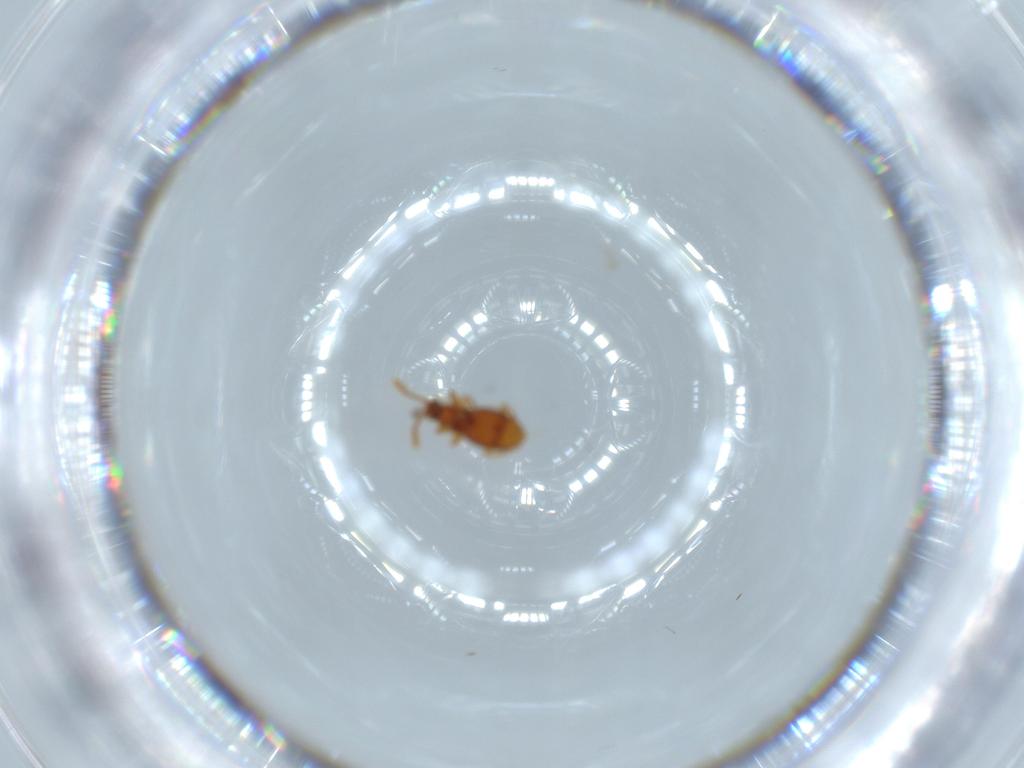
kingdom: Animalia
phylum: Arthropoda
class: Insecta
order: Coleoptera
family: Staphylinidae
